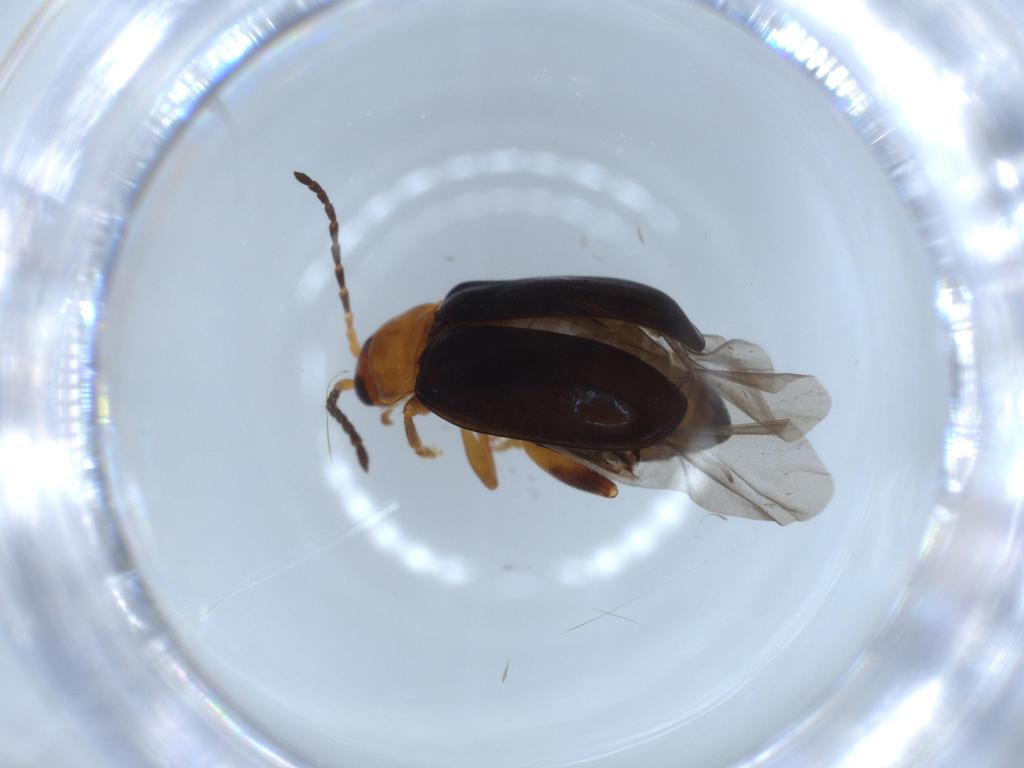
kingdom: Animalia
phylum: Arthropoda
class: Insecta
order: Coleoptera
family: Chrysomelidae
